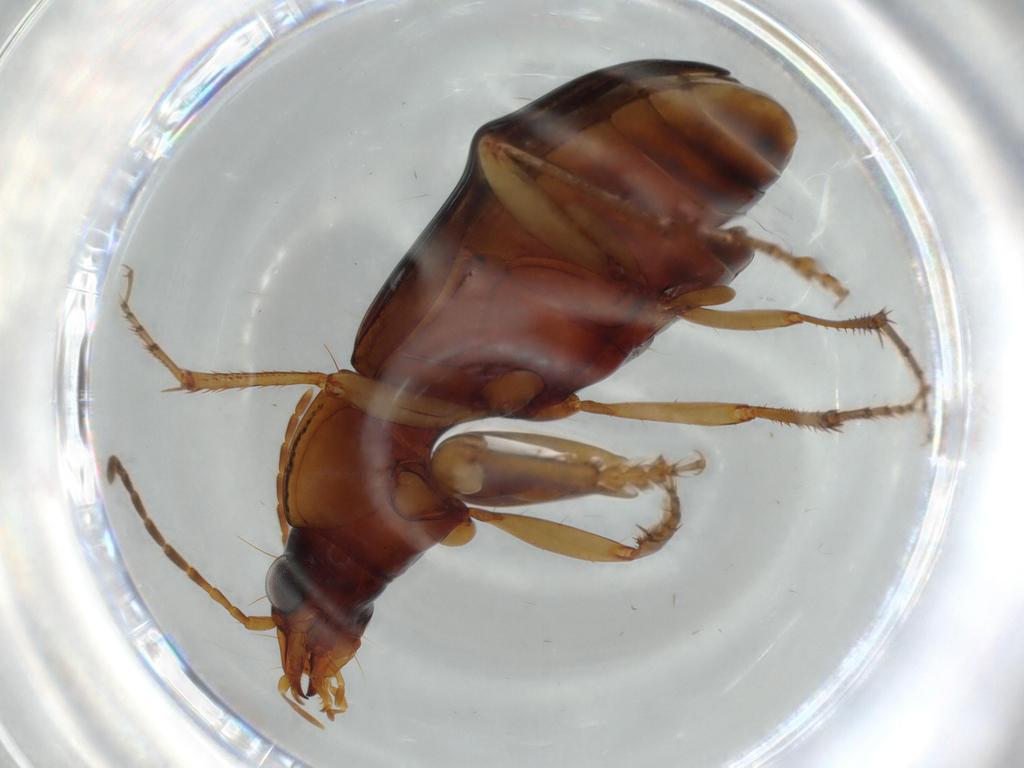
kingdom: Animalia
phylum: Arthropoda
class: Insecta
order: Coleoptera
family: Carabidae
